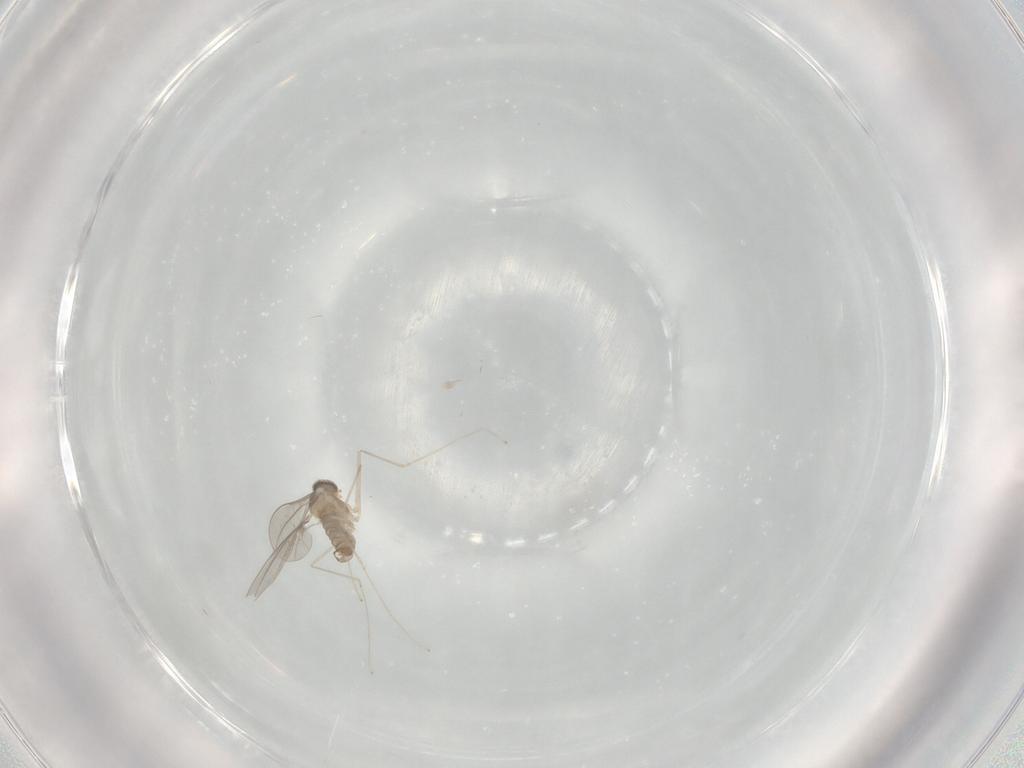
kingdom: Animalia
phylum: Arthropoda
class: Insecta
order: Diptera
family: Cecidomyiidae
